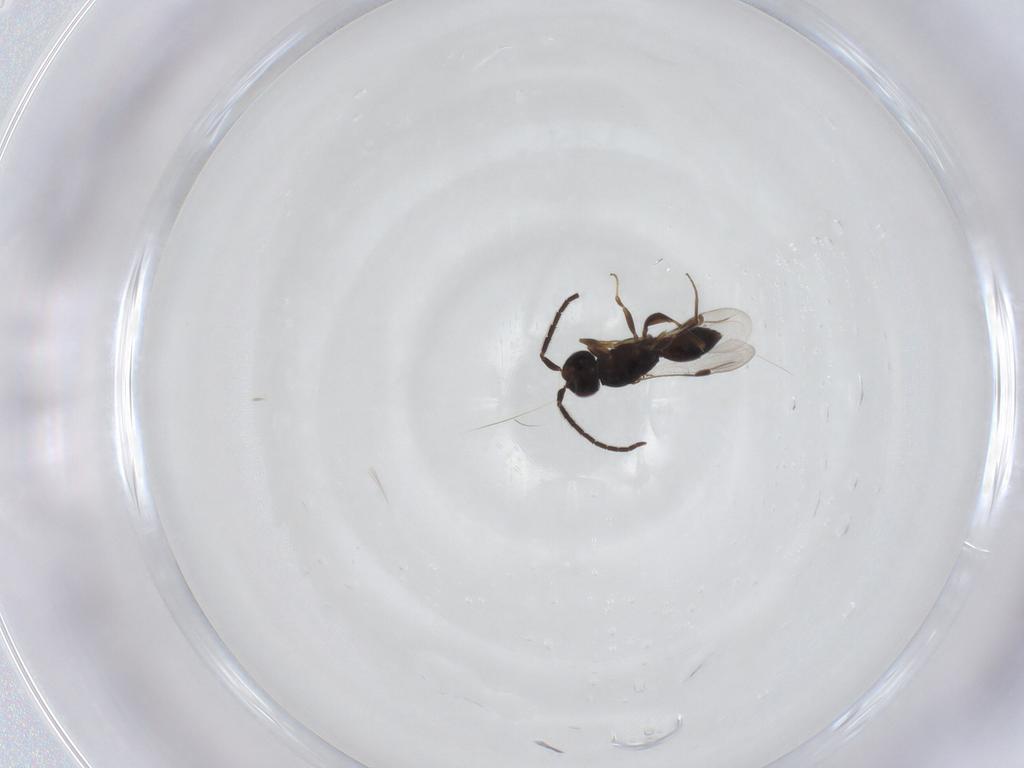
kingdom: Animalia
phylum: Arthropoda
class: Insecta
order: Hymenoptera
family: Megaspilidae
